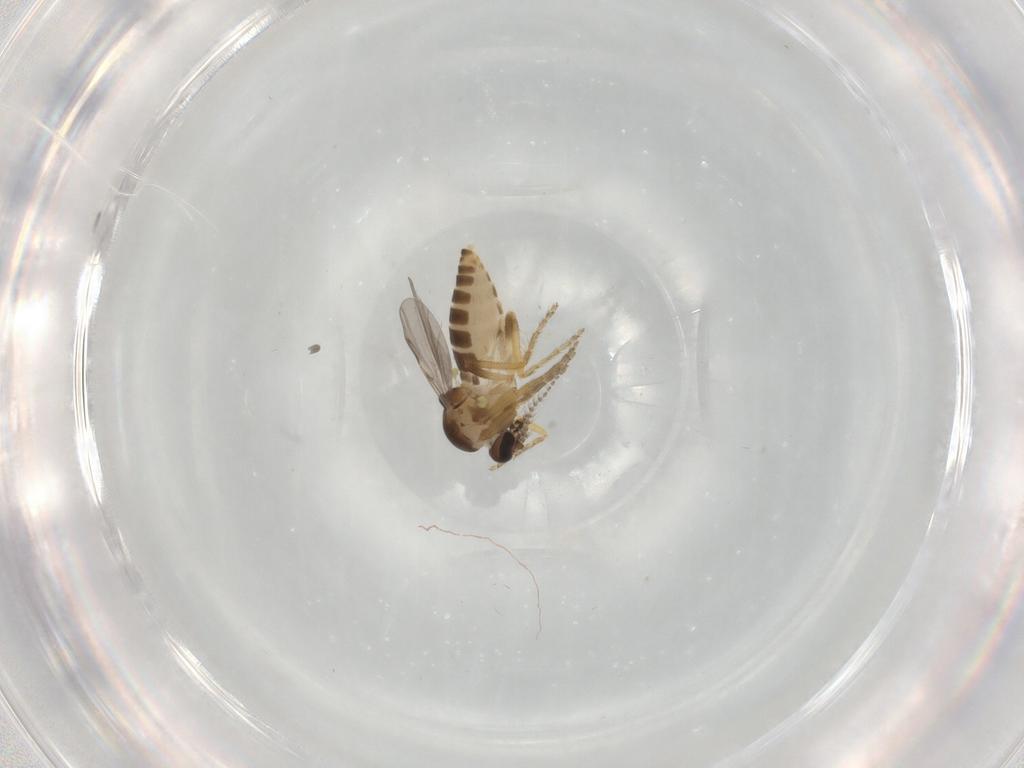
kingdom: Animalia
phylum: Arthropoda
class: Insecta
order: Diptera
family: Ceratopogonidae
